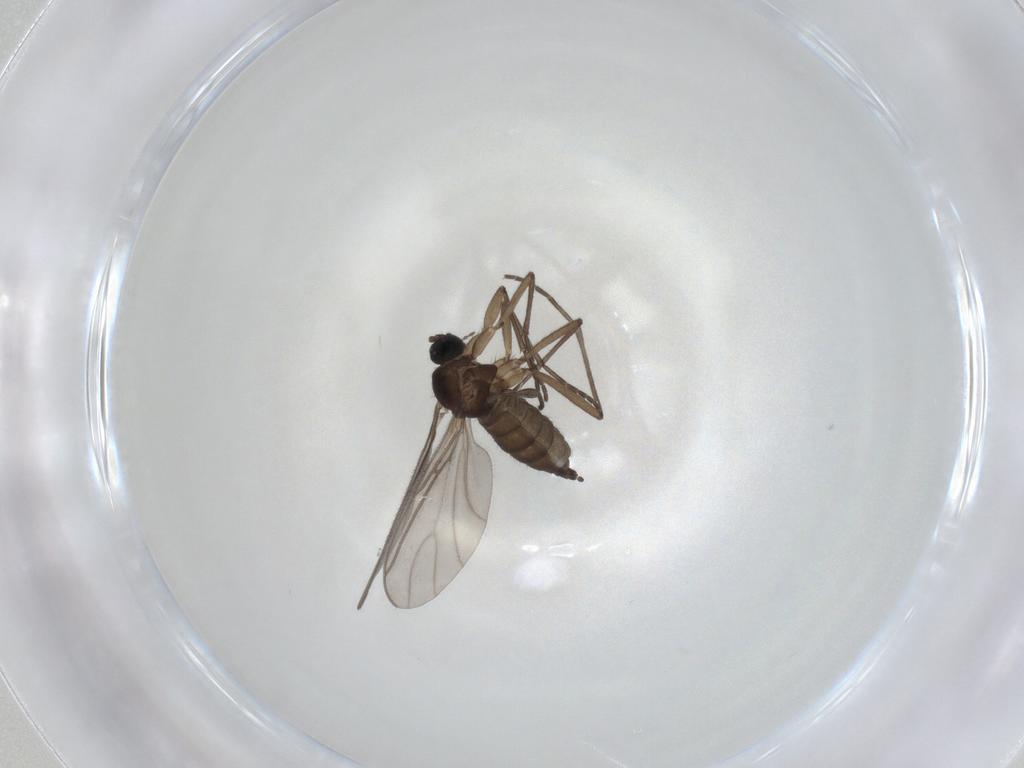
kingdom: Animalia
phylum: Arthropoda
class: Insecta
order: Diptera
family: Sciaridae
